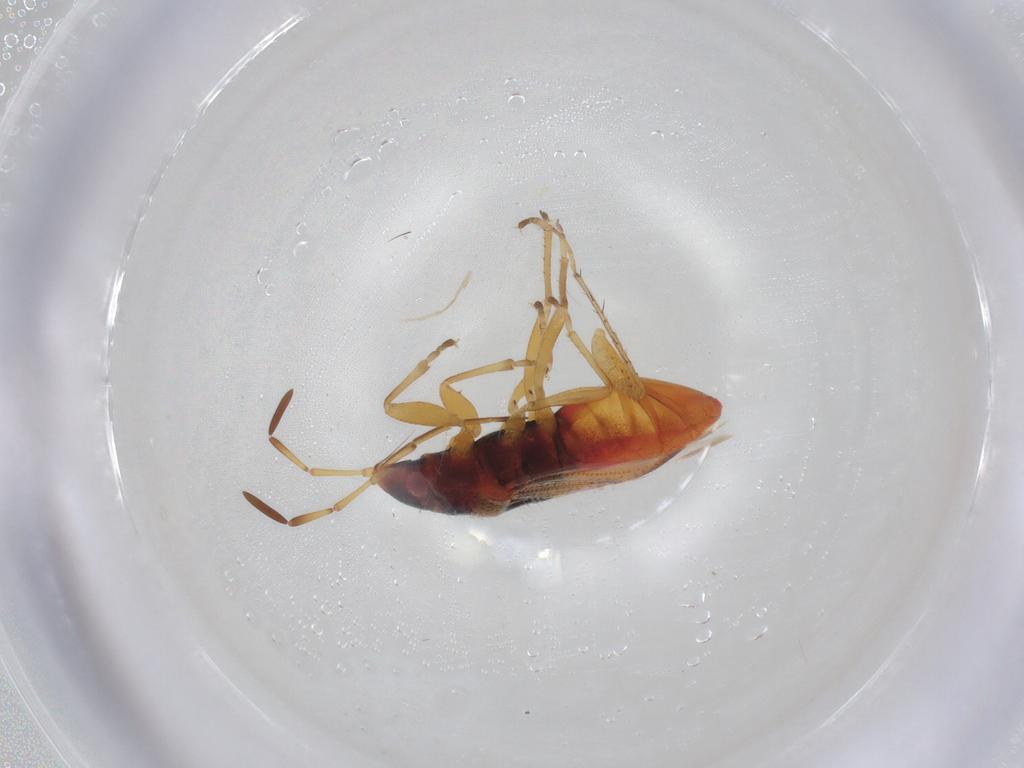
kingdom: Animalia
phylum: Arthropoda
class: Insecta
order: Hemiptera
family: Rhyparochromidae
